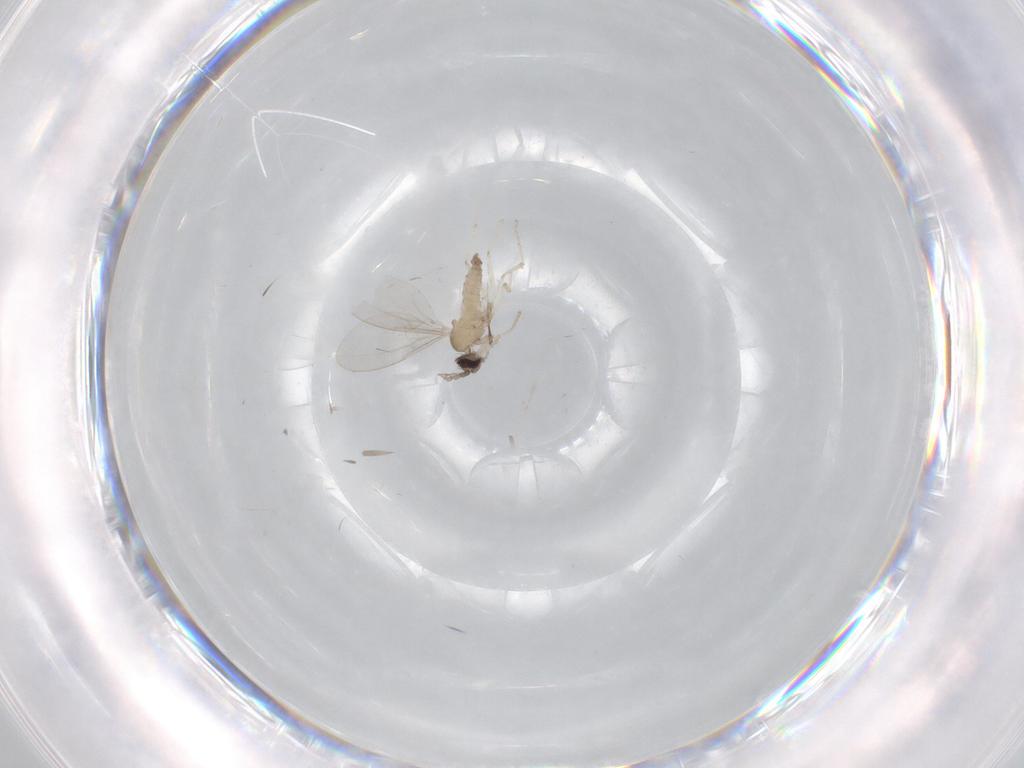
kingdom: Animalia
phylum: Arthropoda
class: Insecta
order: Diptera
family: Cecidomyiidae
